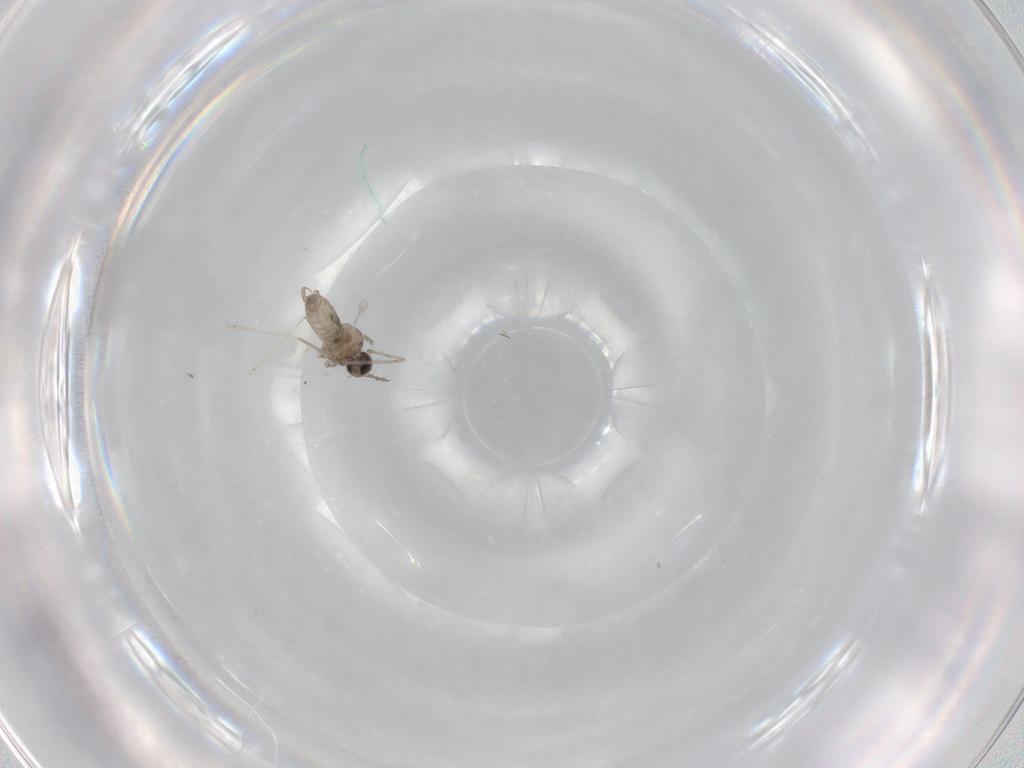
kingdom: Animalia
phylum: Arthropoda
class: Insecta
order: Diptera
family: Cecidomyiidae
